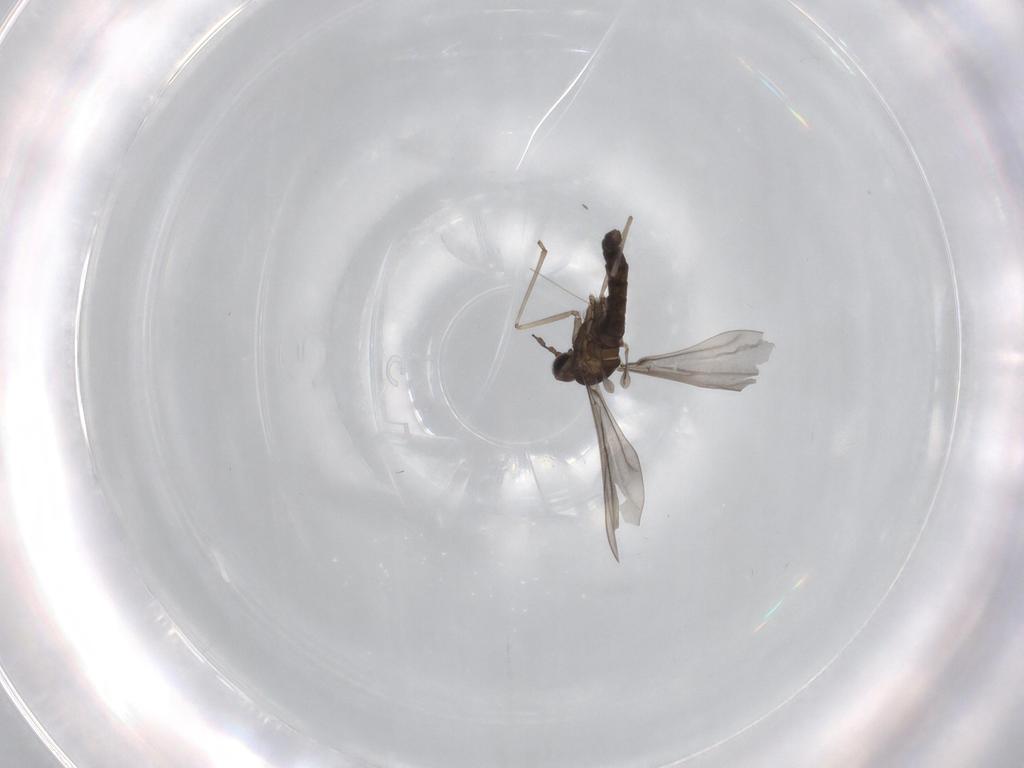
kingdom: Animalia
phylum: Arthropoda
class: Insecta
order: Diptera
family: Cecidomyiidae
